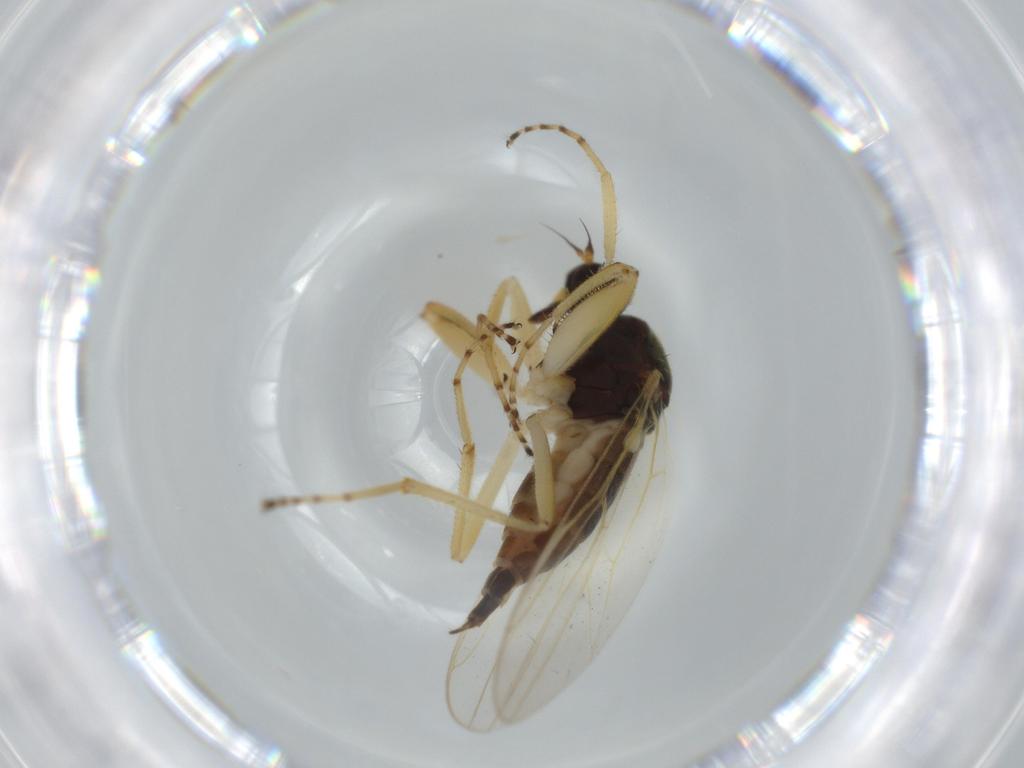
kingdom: Animalia
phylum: Arthropoda
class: Insecta
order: Diptera
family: Hybotidae
